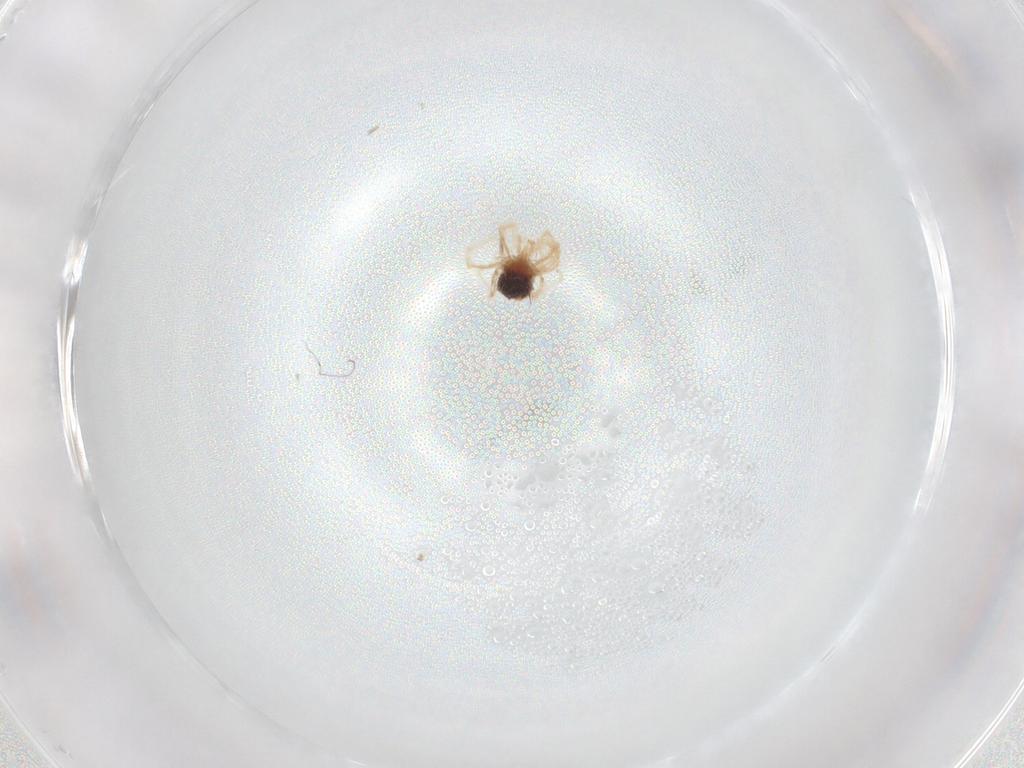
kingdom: Animalia
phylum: Arthropoda
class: Arachnida
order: Trombidiformes
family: Anystidae
